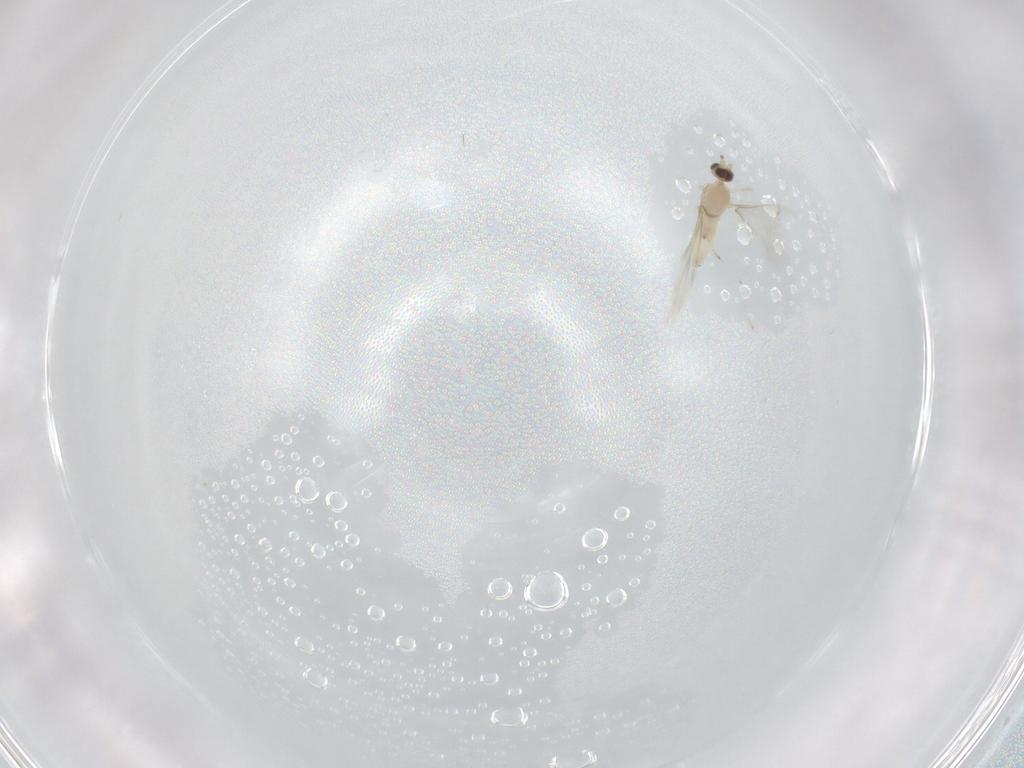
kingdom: Animalia
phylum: Arthropoda
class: Insecta
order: Diptera
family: Cecidomyiidae
